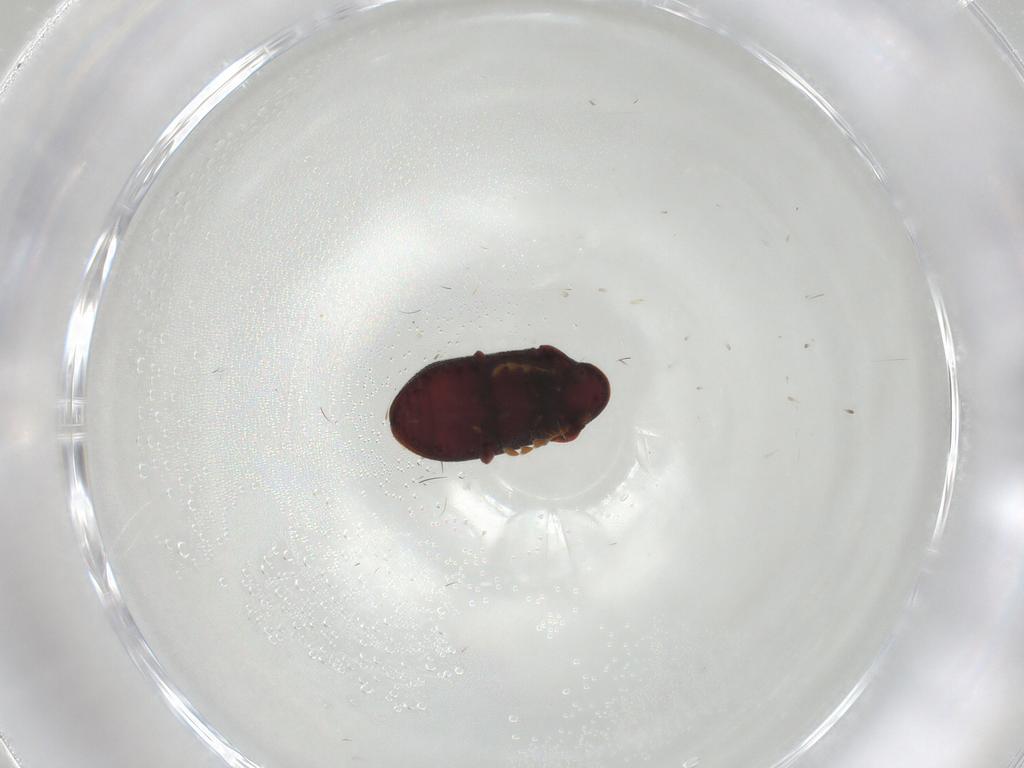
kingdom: Animalia
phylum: Arthropoda
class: Insecta
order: Coleoptera
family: Ptinidae
